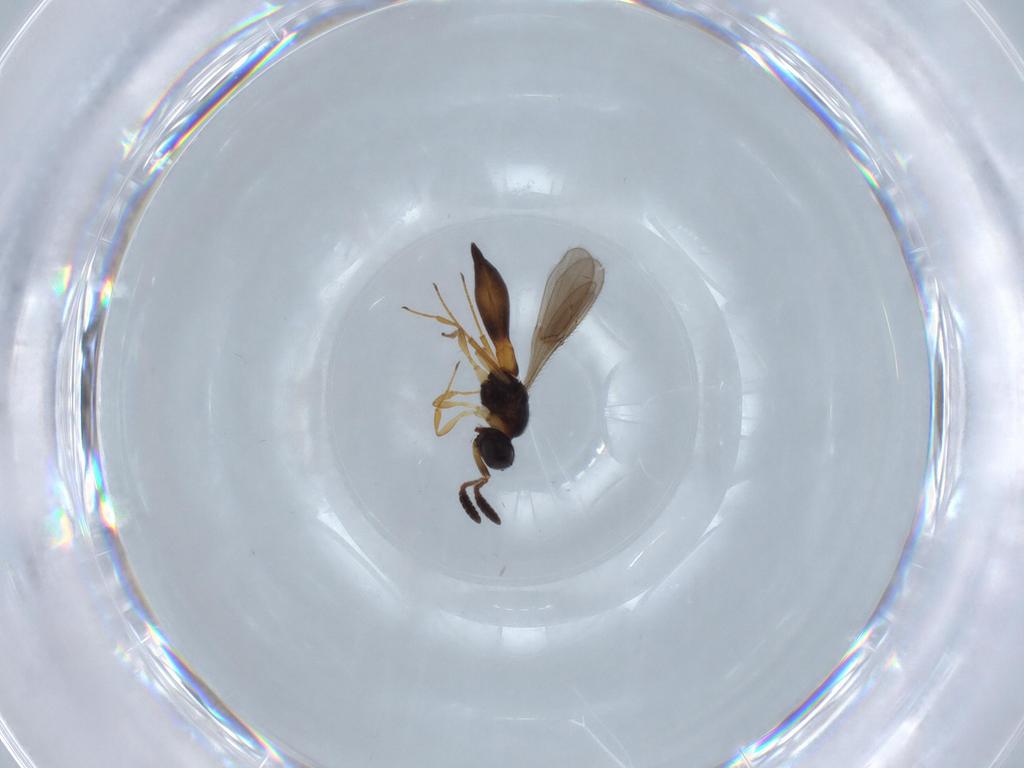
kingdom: Animalia
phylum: Arthropoda
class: Insecta
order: Hymenoptera
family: Scelionidae
